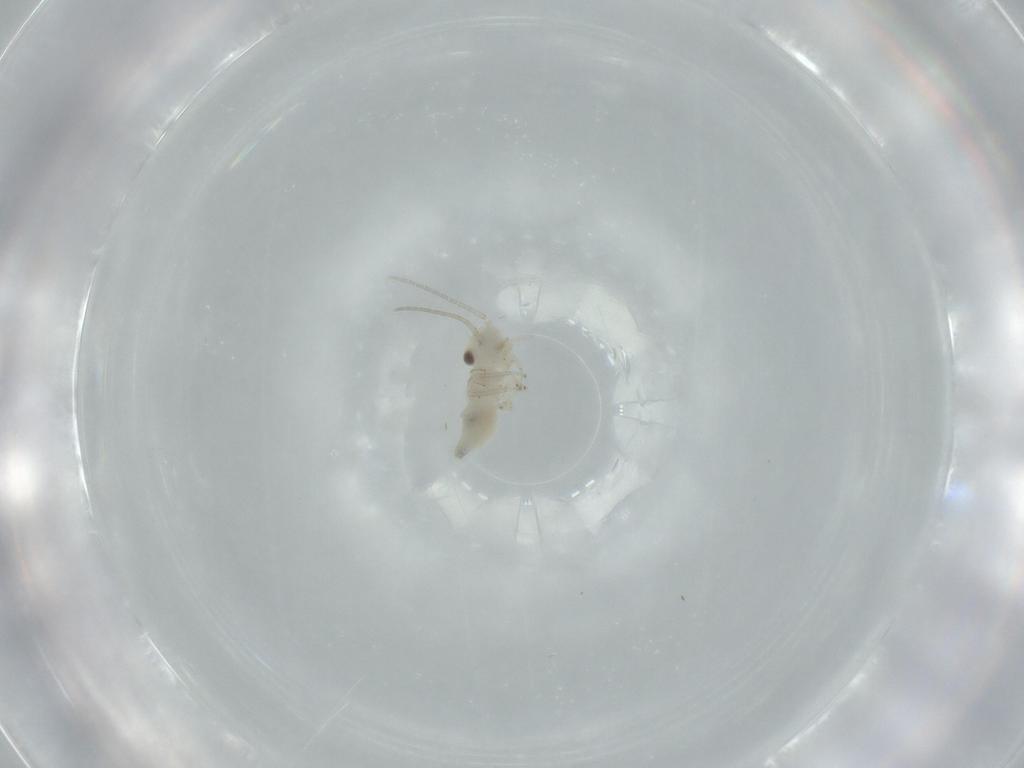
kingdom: Animalia
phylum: Arthropoda
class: Insecta
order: Psocodea
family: Caeciliusidae
